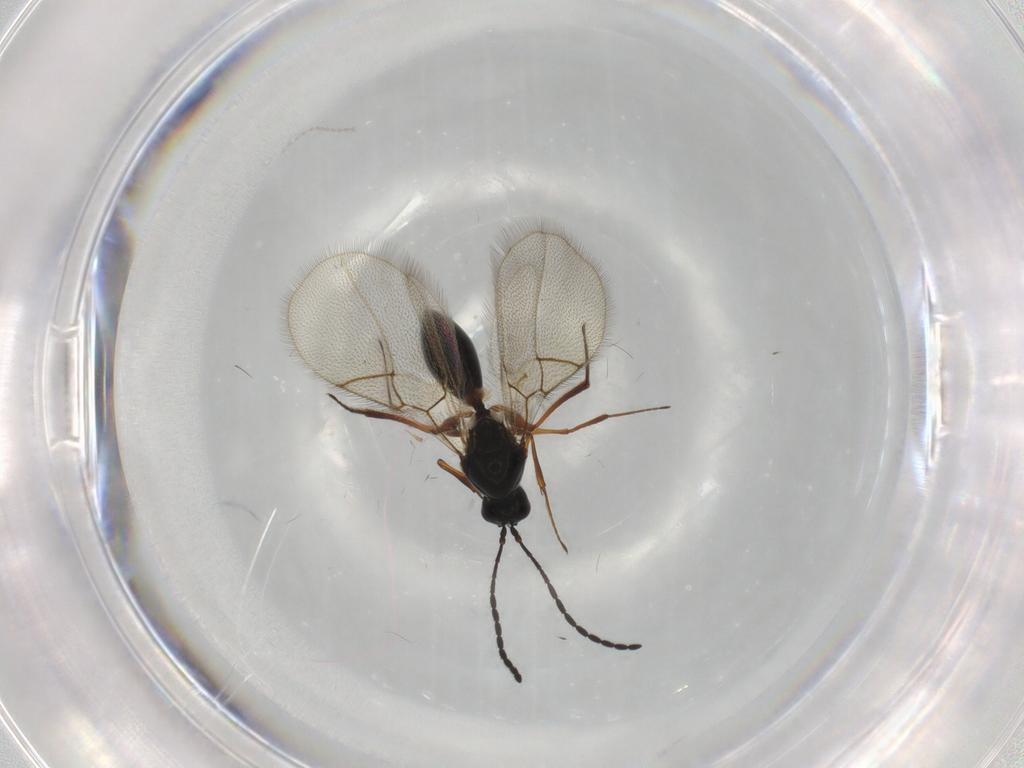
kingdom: Animalia
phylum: Arthropoda
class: Insecta
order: Hymenoptera
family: Figitidae
